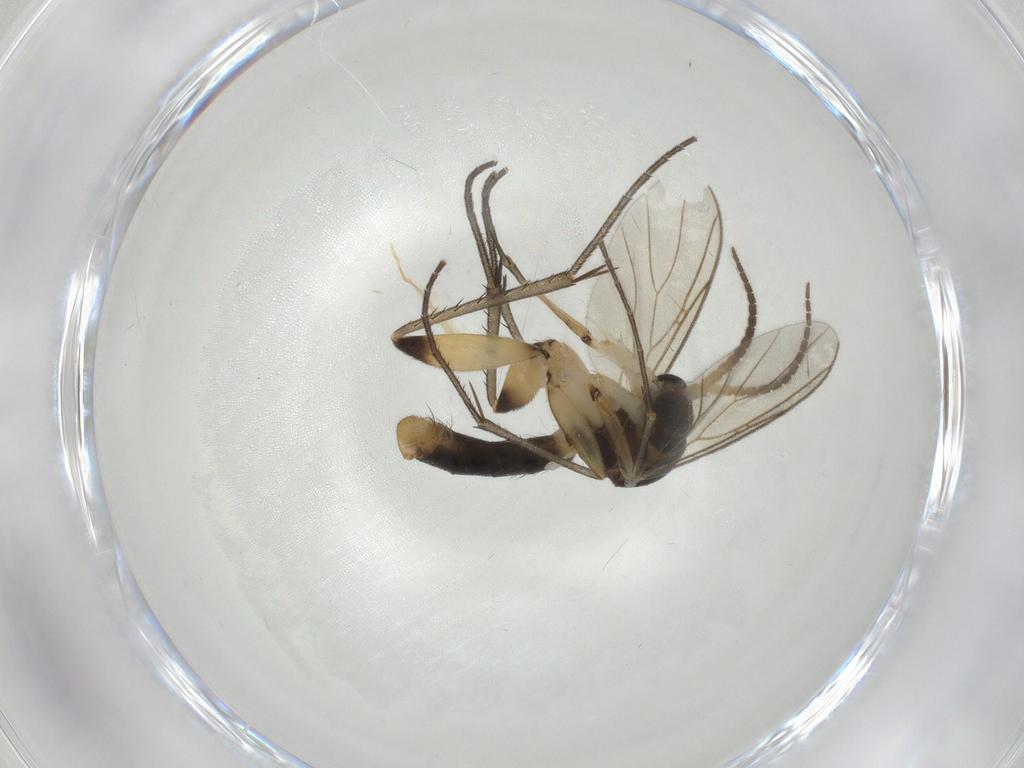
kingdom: Animalia
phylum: Arthropoda
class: Insecta
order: Diptera
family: Mycetophilidae
